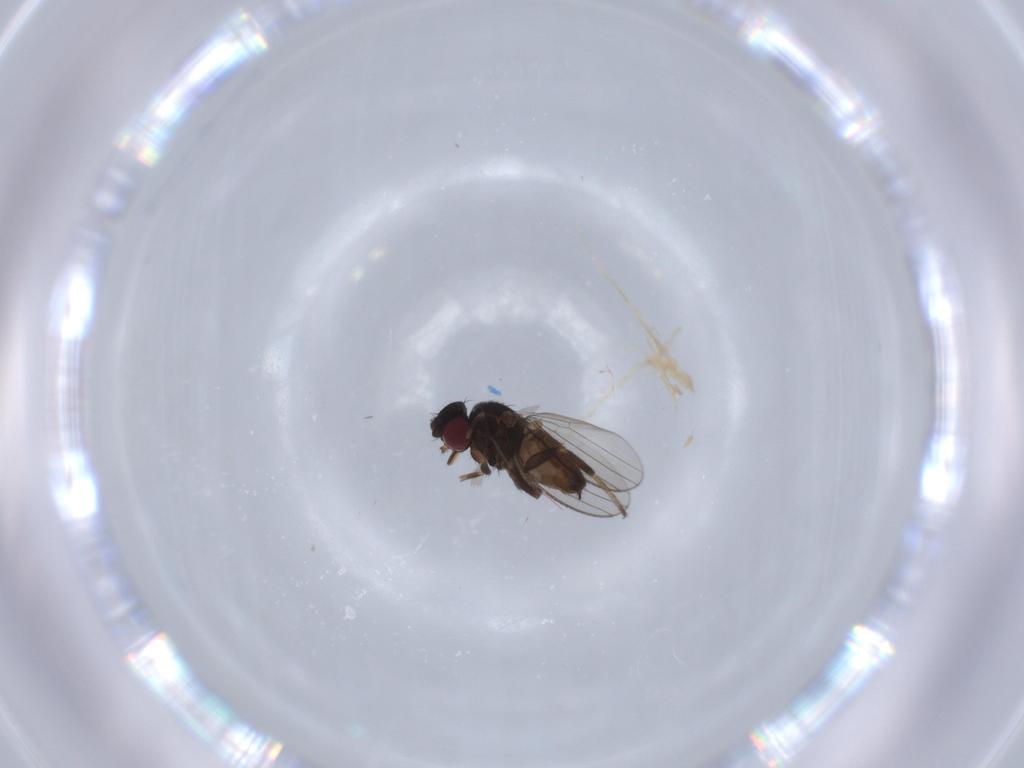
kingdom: Animalia
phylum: Arthropoda
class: Insecta
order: Diptera
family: Milichiidae
